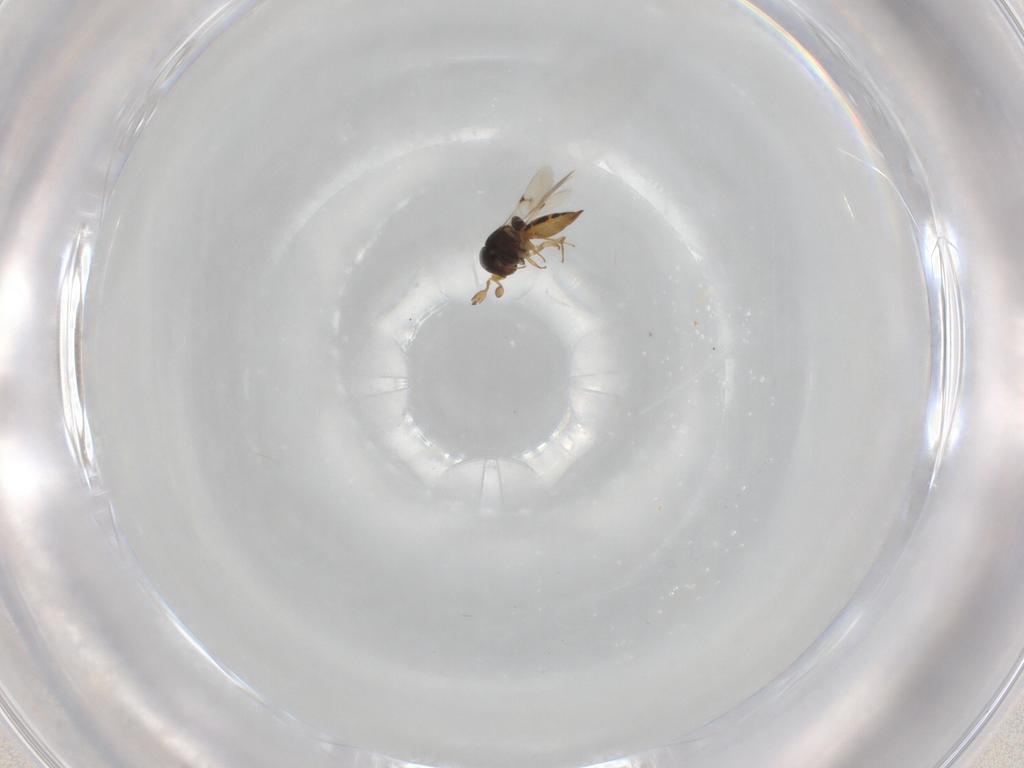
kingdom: Animalia
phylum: Arthropoda
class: Insecta
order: Hymenoptera
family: Scelionidae
